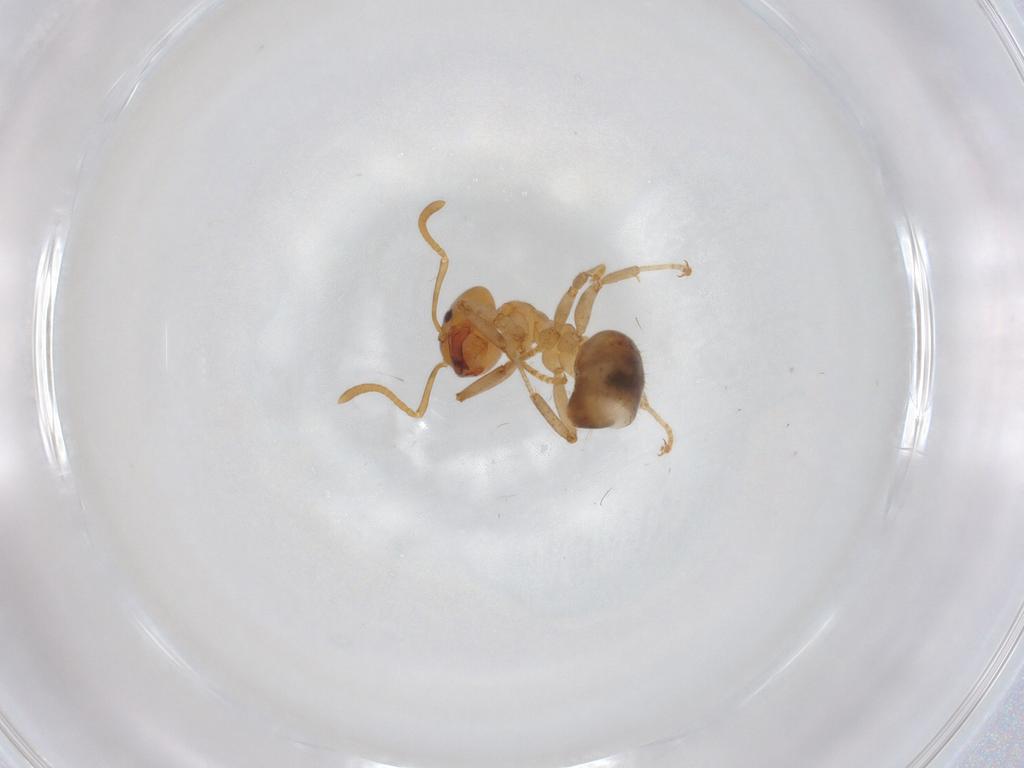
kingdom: Animalia
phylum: Arthropoda
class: Insecta
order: Hymenoptera
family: Formicidae
